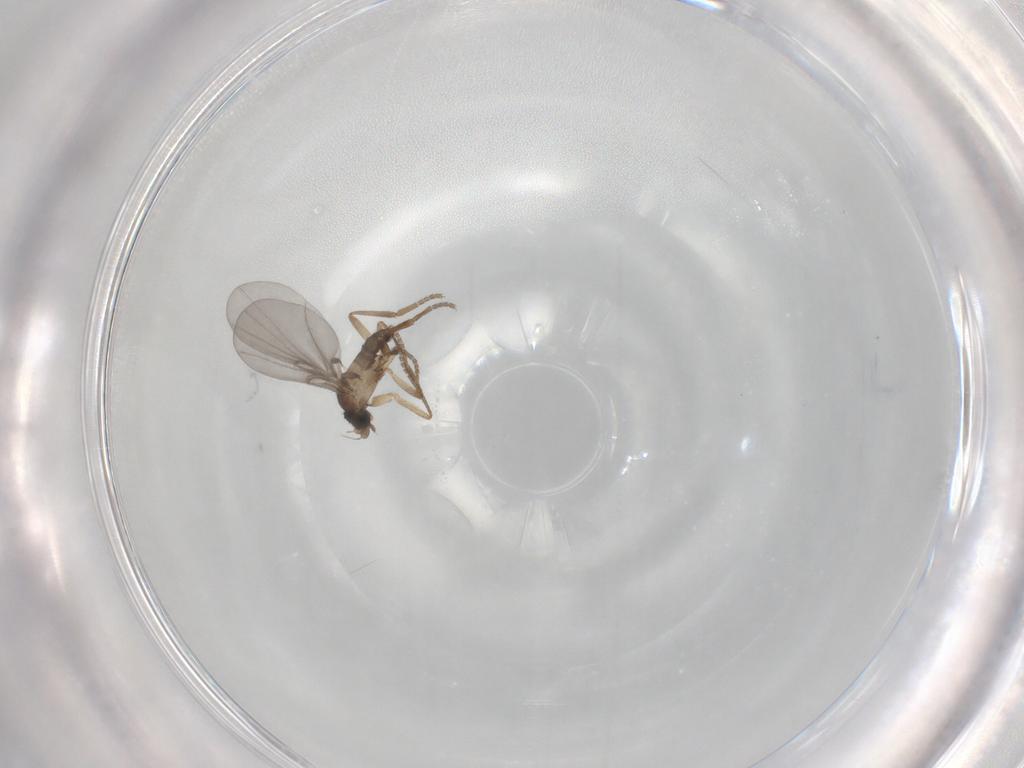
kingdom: Animalia
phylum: Arthropoda
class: Insecta
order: Diptera
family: Phoridae
